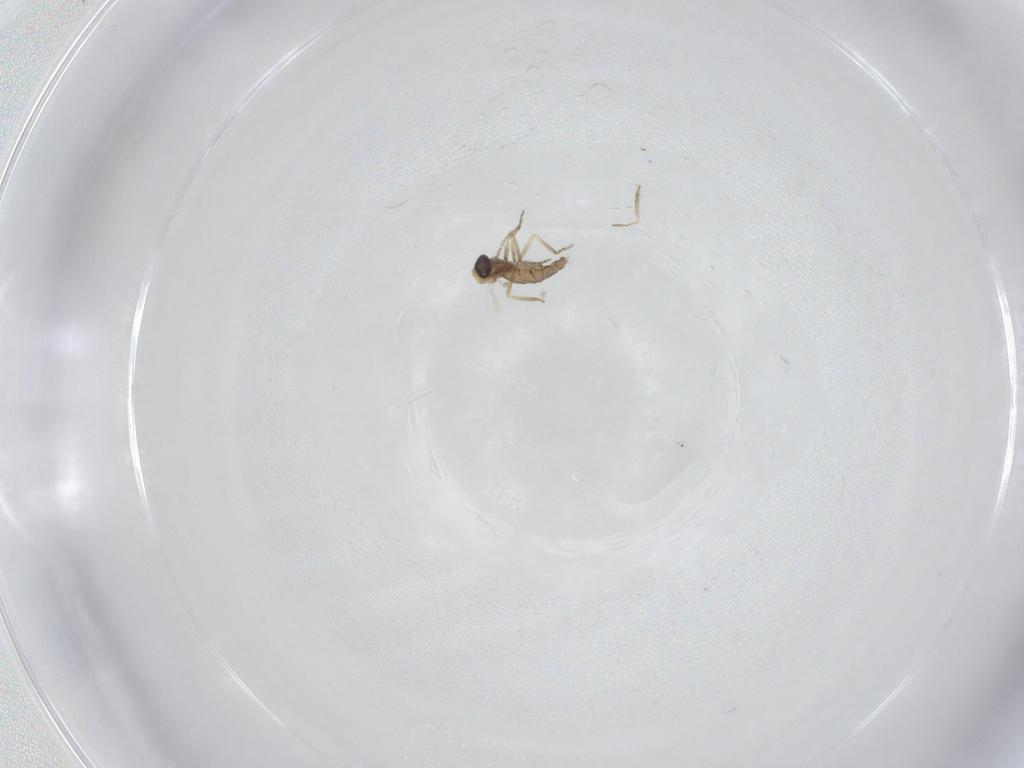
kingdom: Animalia
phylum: Arthropoda
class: Insecta
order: Diptera
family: Ceratopogonidae
